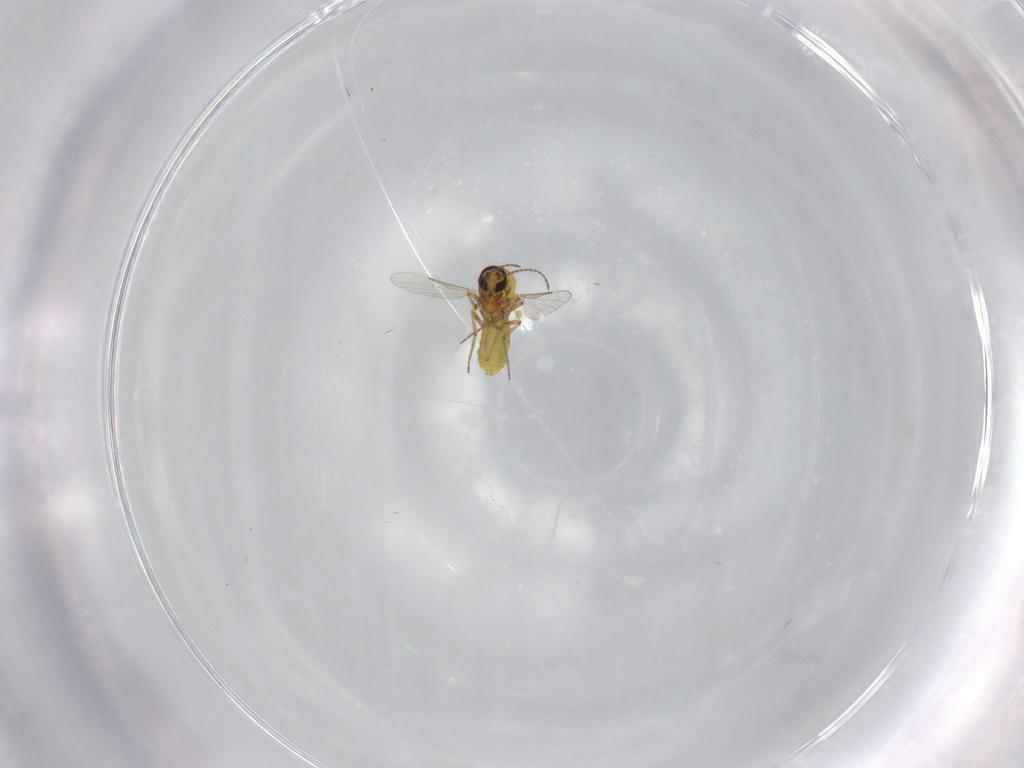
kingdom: Animalia
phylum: Arthropoda
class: Insecta
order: Diptera
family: Ceratopogonidae
